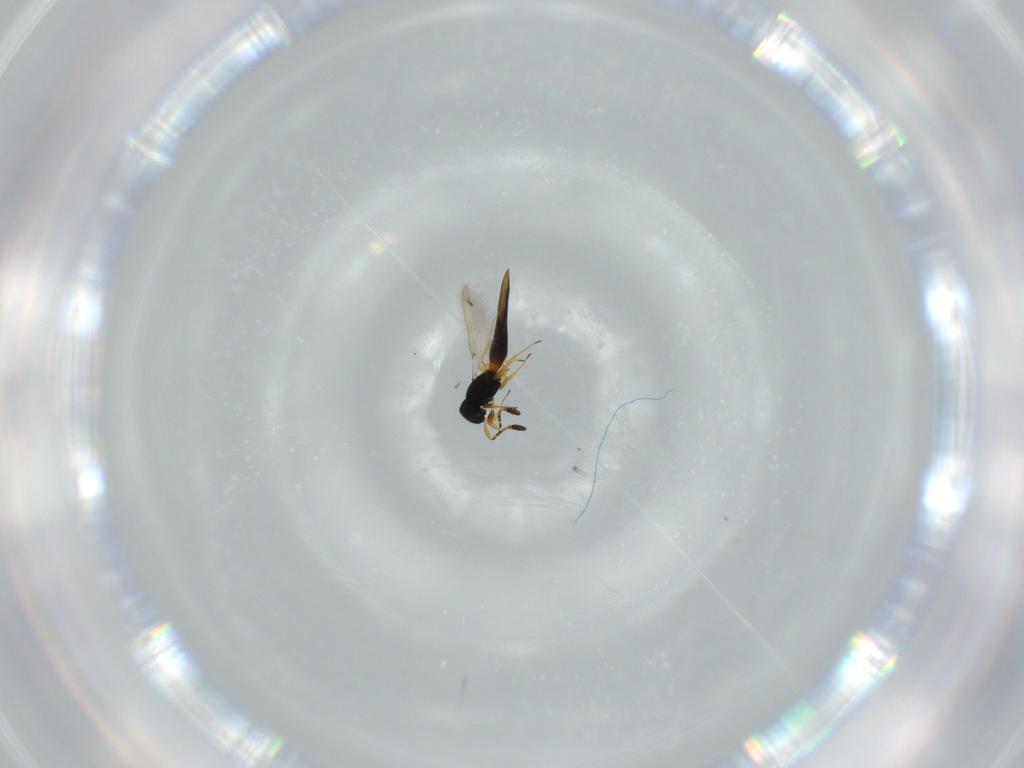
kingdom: Animalia
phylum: Arthropoda
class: Insecta
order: Hymenoptera
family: Scelionidae
